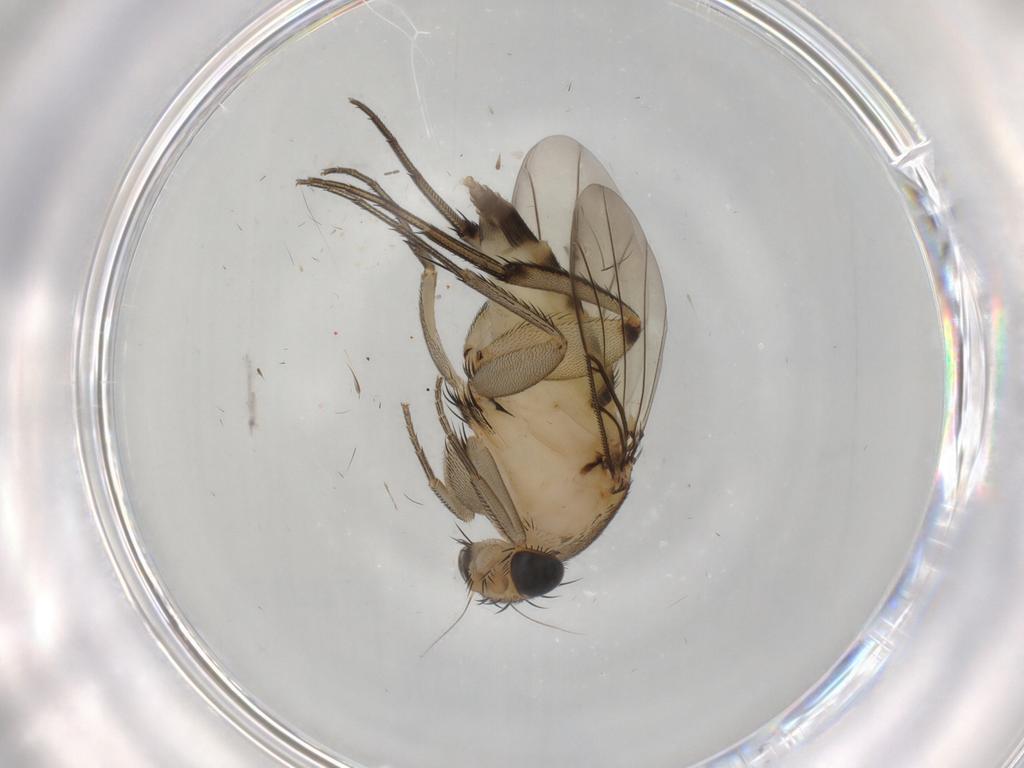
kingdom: Animalia
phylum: Arthropoda
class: Insecta
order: Diptera
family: Phoridae
